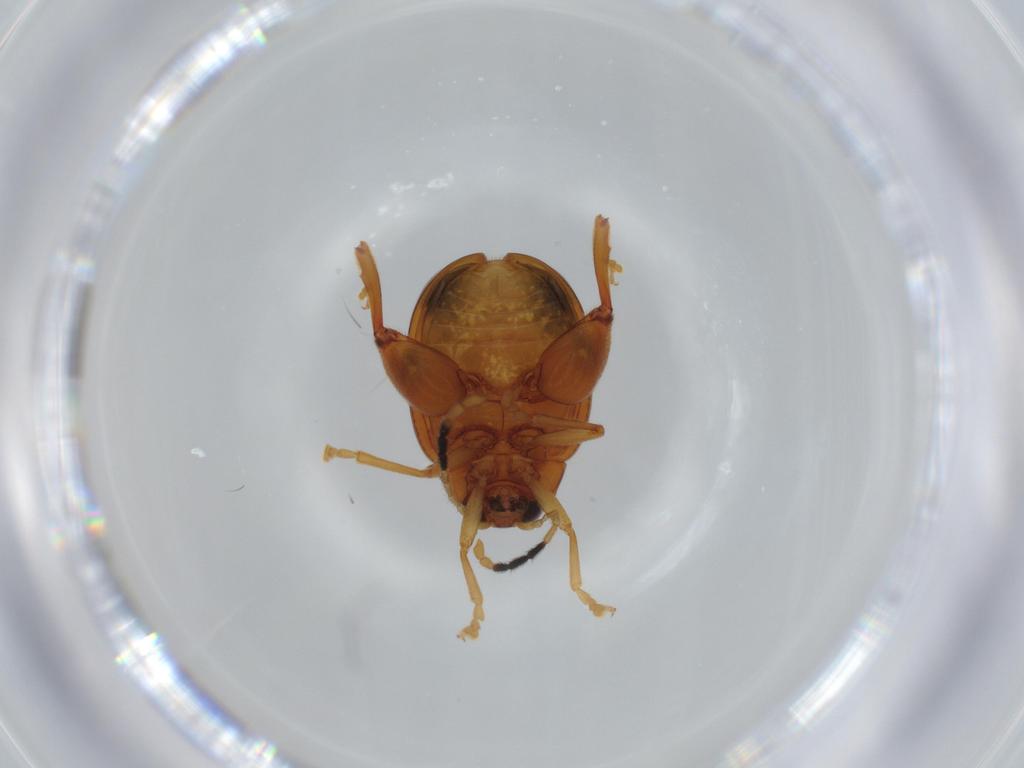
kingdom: Animalia
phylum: Arthropoda
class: Insecta
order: Coleoptera
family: Chrysomelidae
